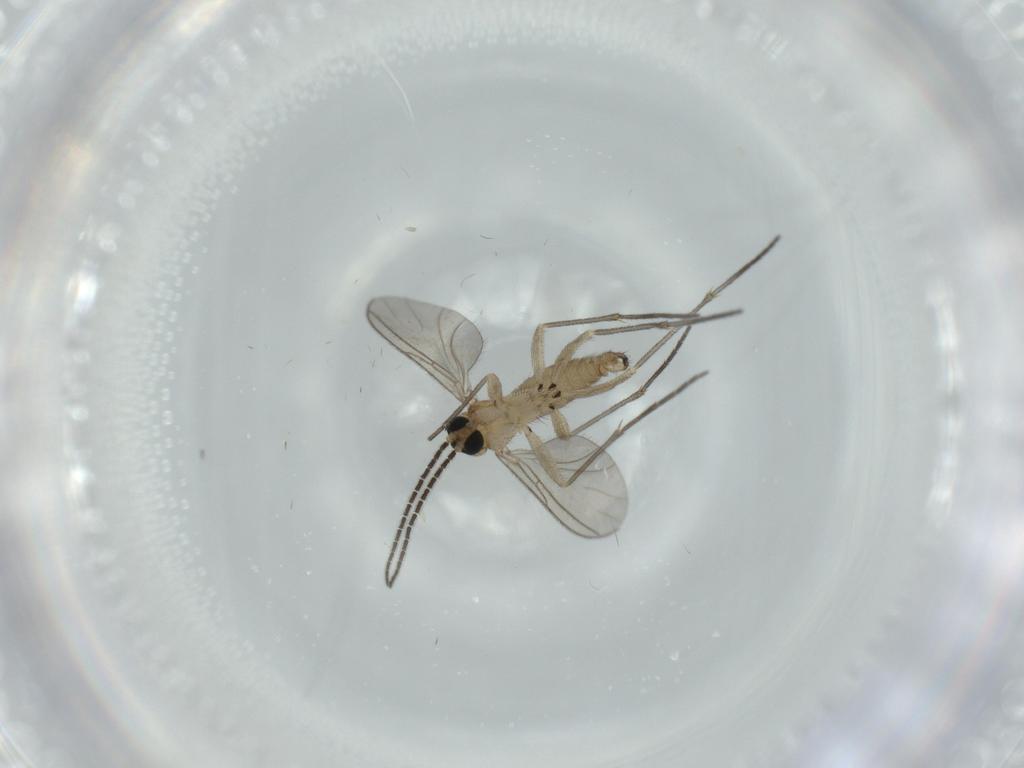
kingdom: Animalia
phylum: Arthropoda
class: Insecta
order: Diptera
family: Sciaridae
